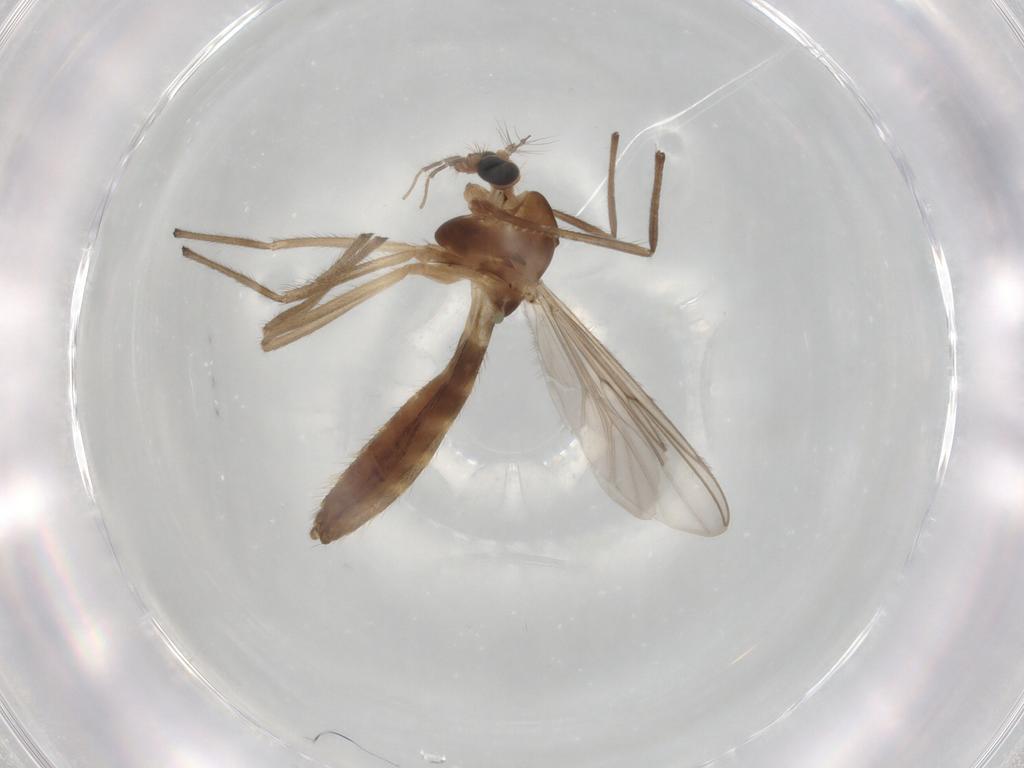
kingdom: Animalia
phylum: Arthropoda
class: Insecta
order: Diptera
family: Chironomidae
